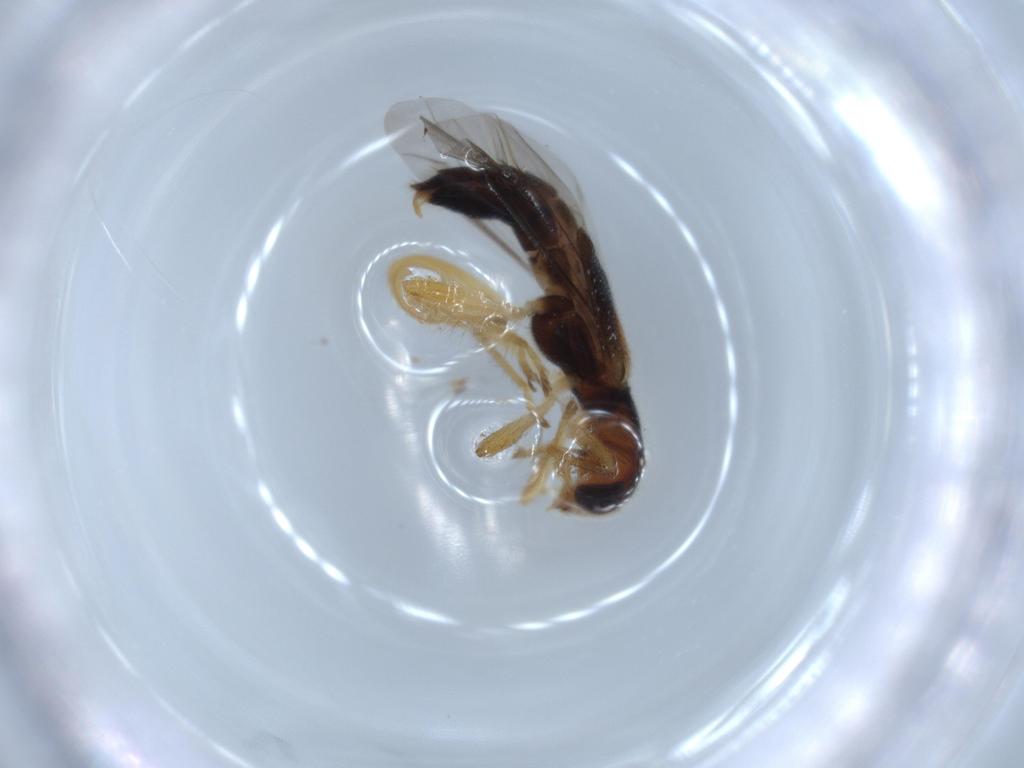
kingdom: Animalia
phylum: Arthropoda
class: Insecta
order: Coleoptera
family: Cleridae
